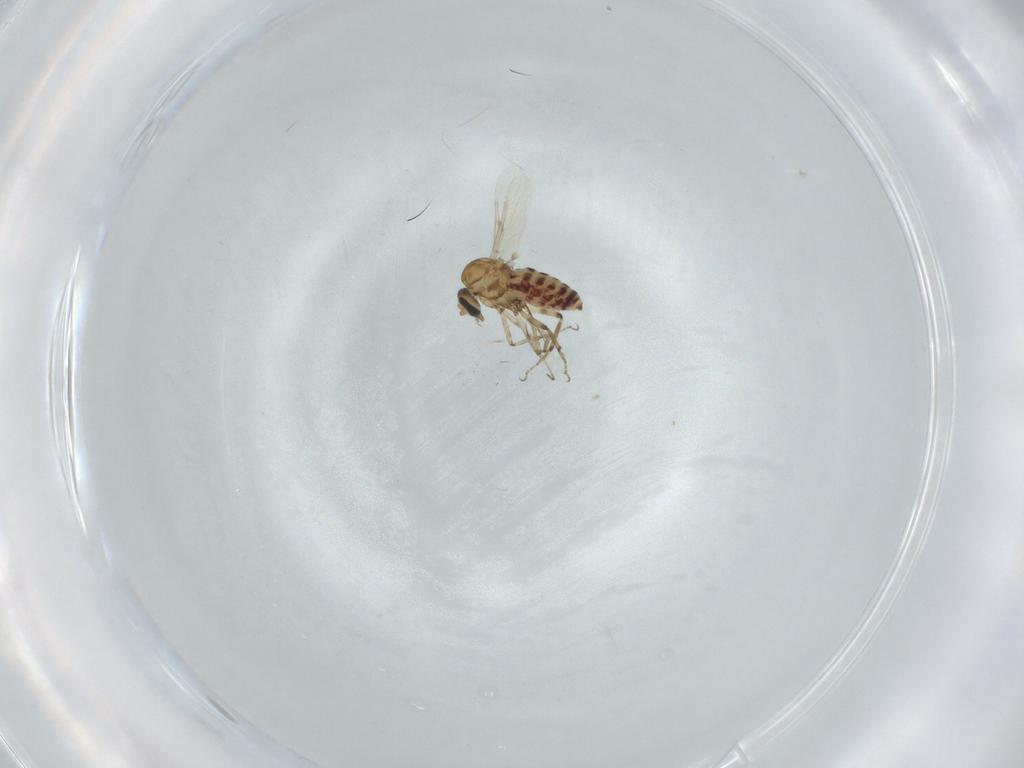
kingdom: Animalia
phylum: Arthropoda
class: Insecta
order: Diptera
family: Ceratopogonidae
